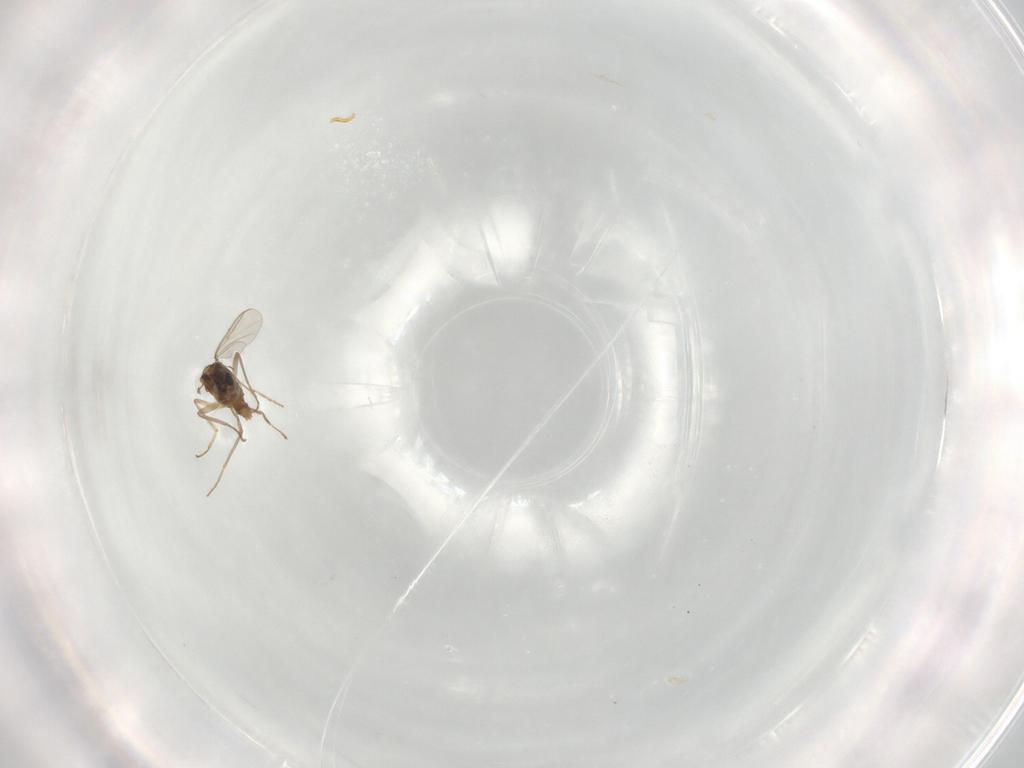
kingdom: Animalia
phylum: Arthropoda
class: Insecta
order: Diptera
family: Chironomidae
